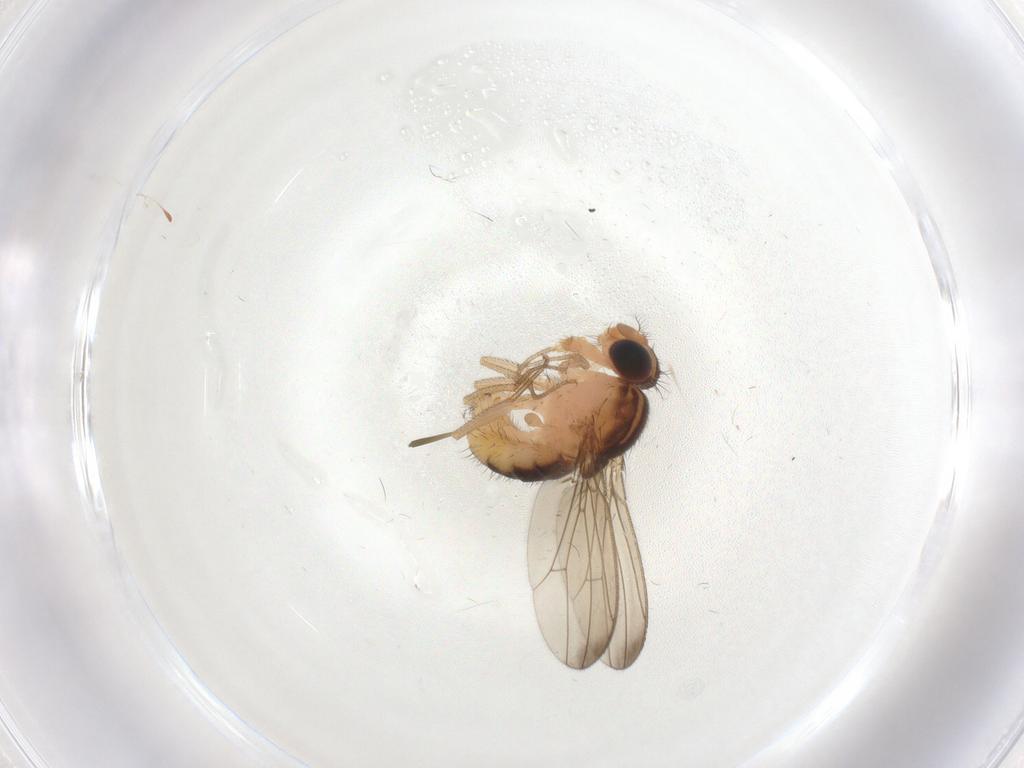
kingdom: Animalia
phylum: Arthropoda
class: Insecta
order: Diptera
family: Drosophilidae
